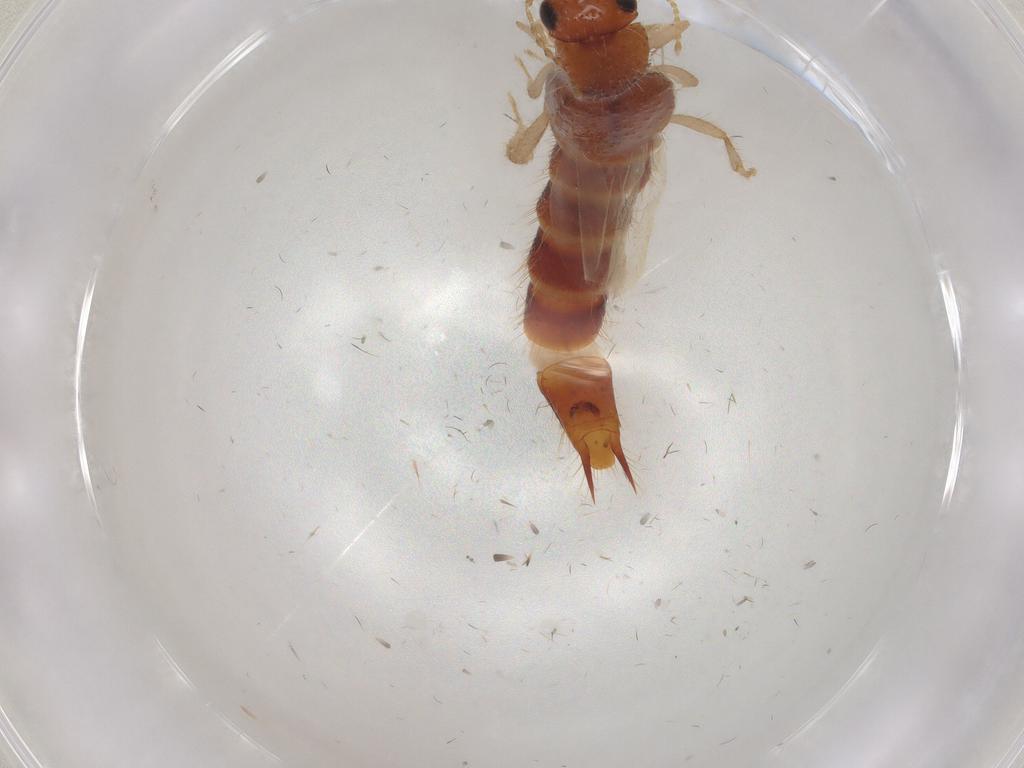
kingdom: Animalia
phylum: Arthropoda
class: Insecta
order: Coleoptera
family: Staphylinidae
